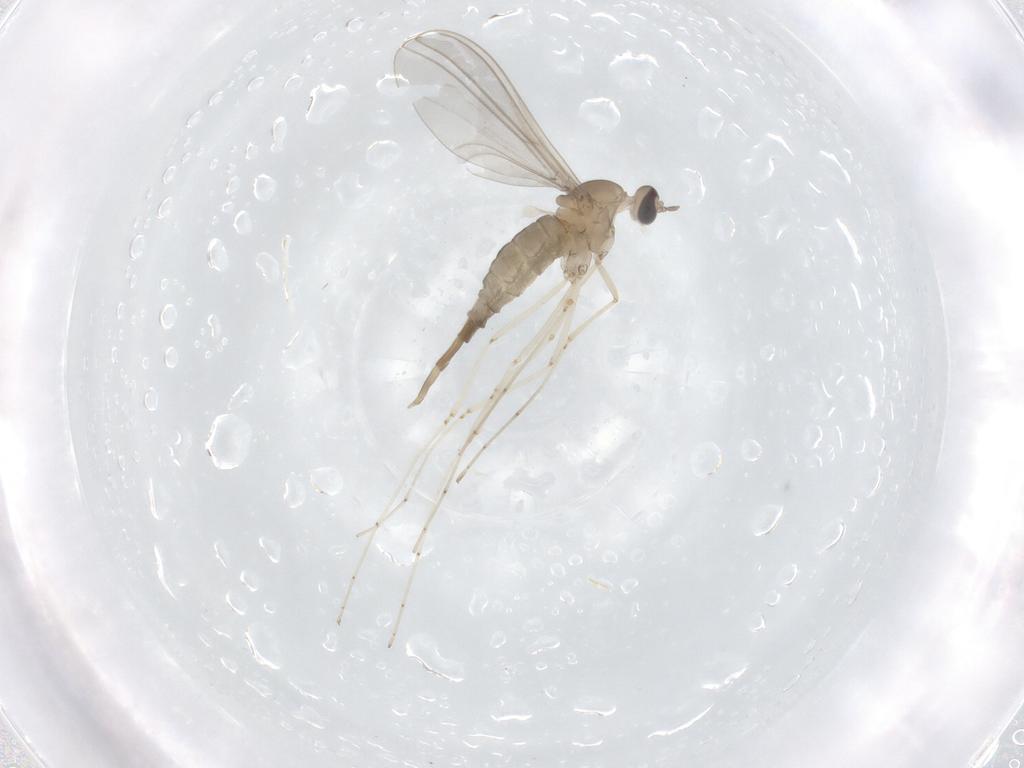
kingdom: Animalia
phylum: Arthropoda
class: Insecta
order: Diptera
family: Cecidomyiidae
